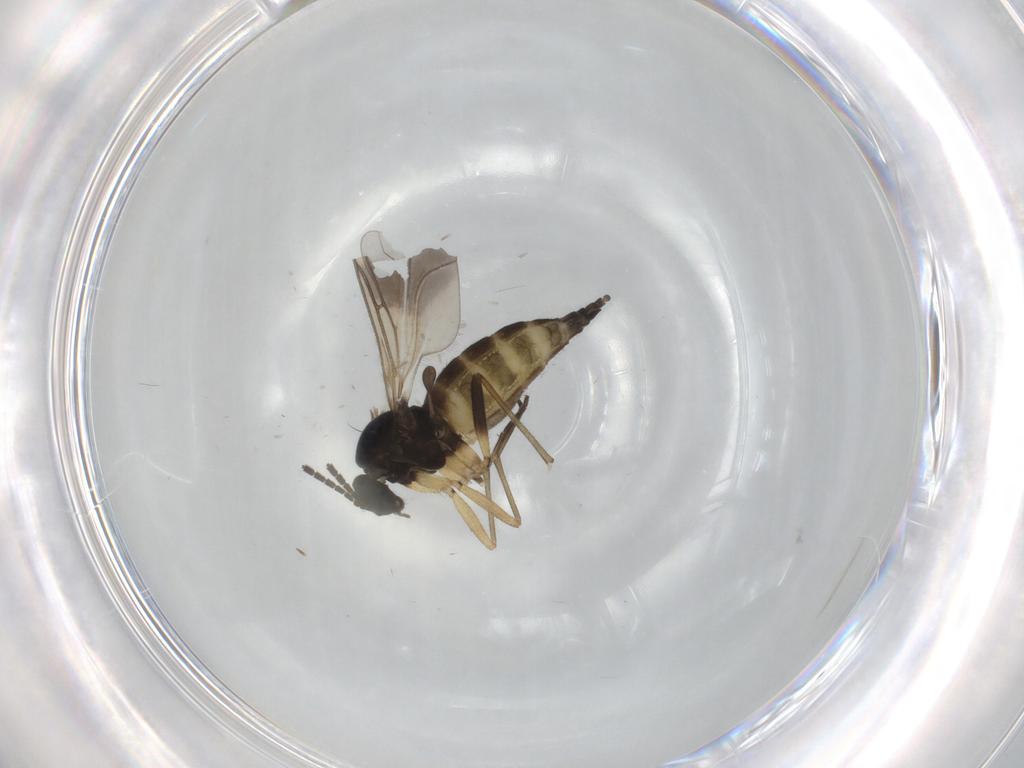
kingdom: Animalia
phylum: Arthropoda
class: Insecta
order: Diptera
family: Sciaridae
